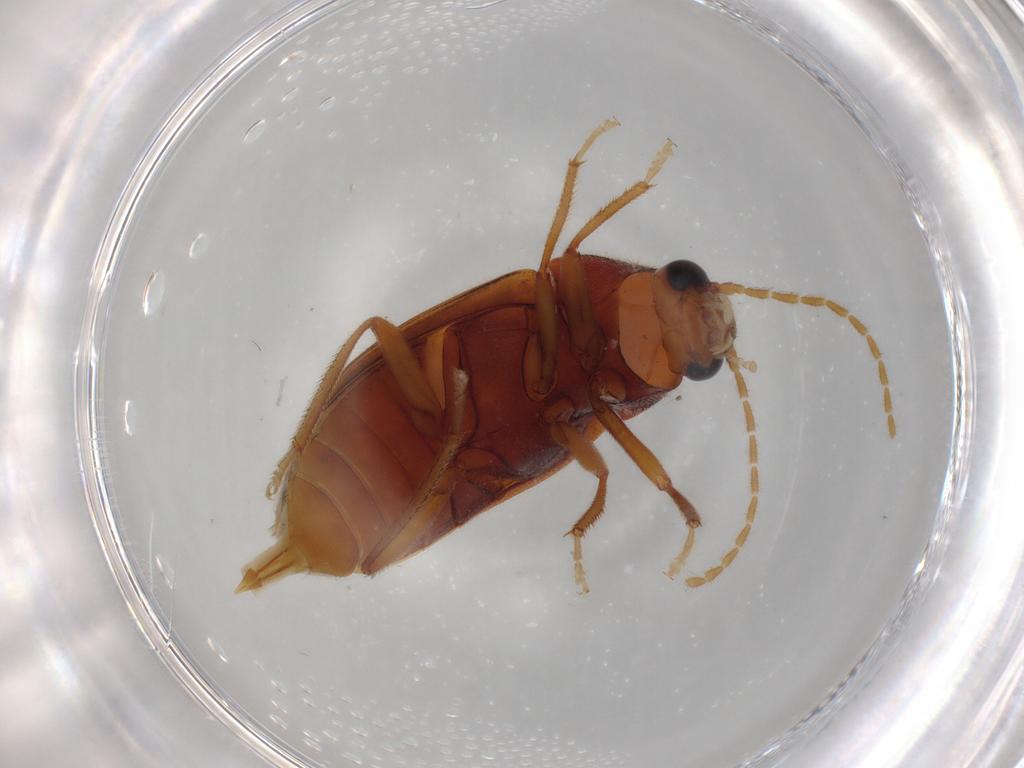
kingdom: Animalia
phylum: Arthropoda
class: Insecta
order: Coleoptera
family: Ptilodactylidae
